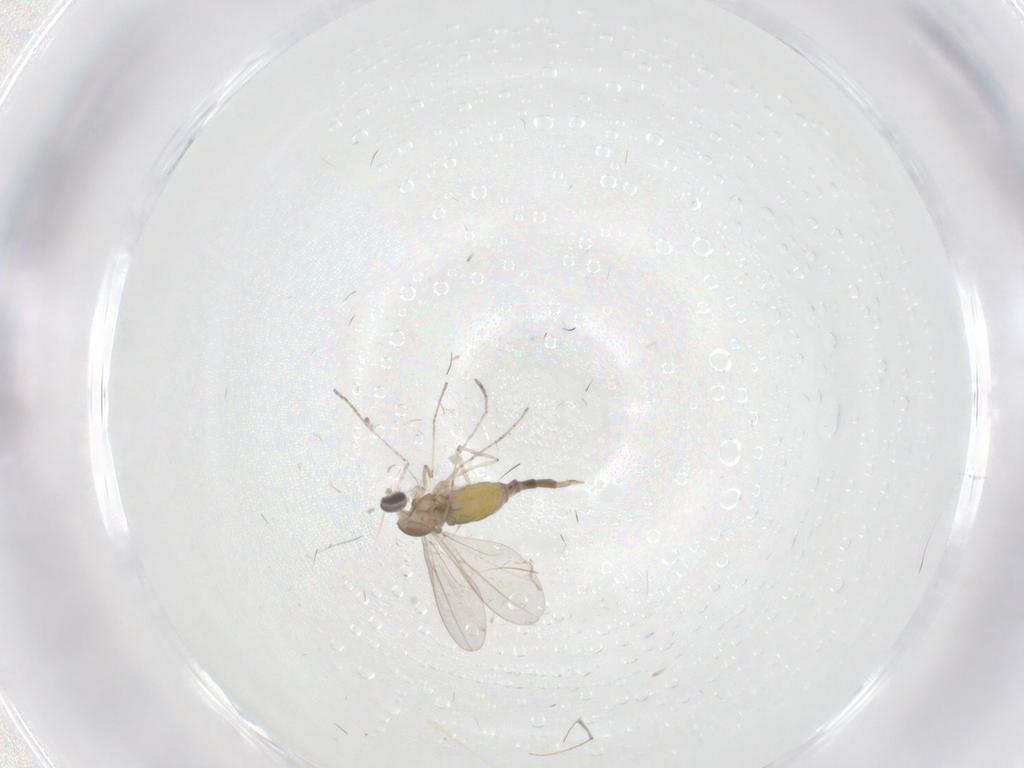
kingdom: Animalia
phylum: Arthropoda
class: Insecta
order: Diptera
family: Cecidomyiidae
